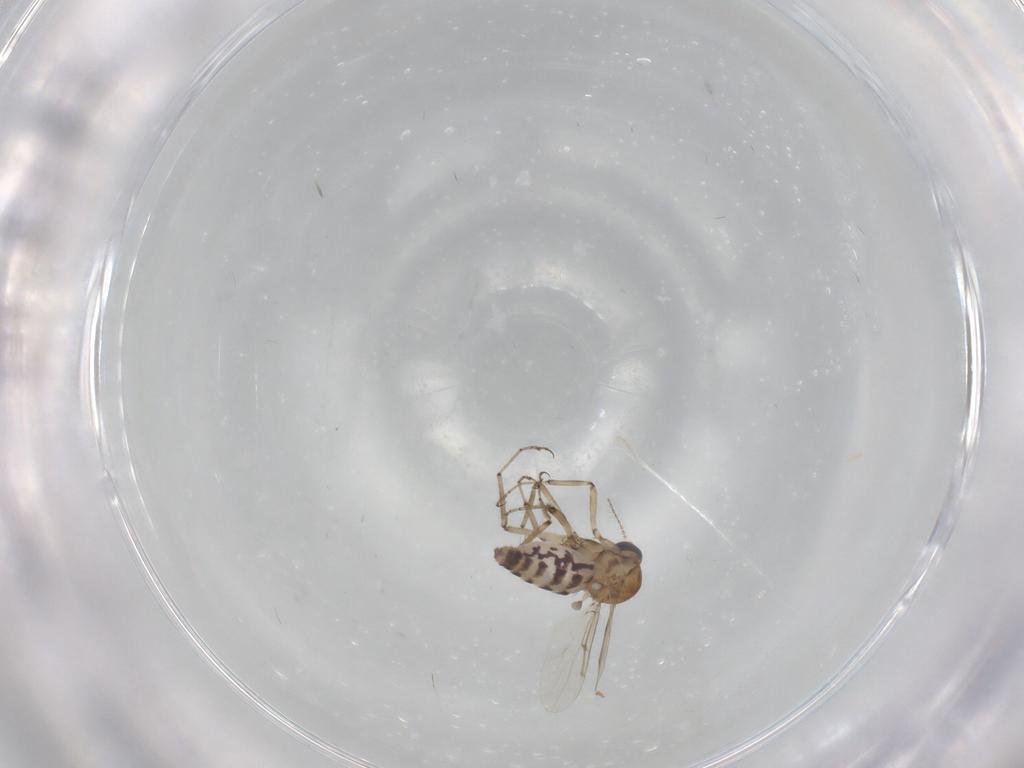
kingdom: Animalia
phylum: Arthropoda
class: Insecta
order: Diptera
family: Ceratopogonidae
